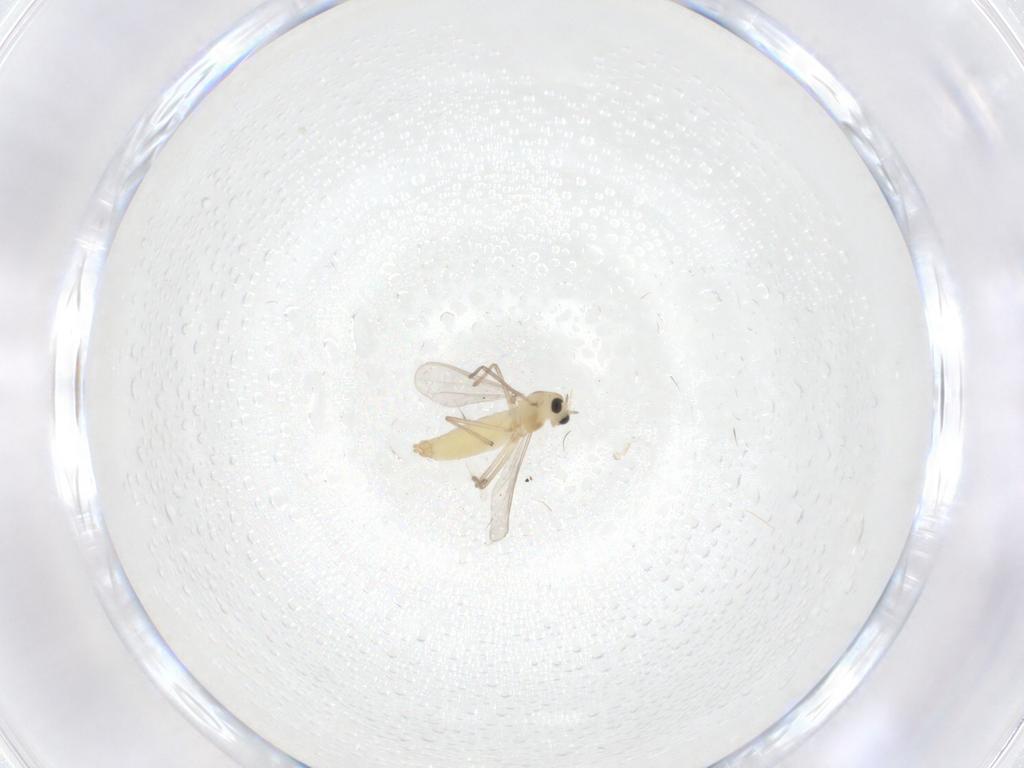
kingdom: Animalia
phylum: Arthropoda
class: Insecta
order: Diptera
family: Chironomidae
